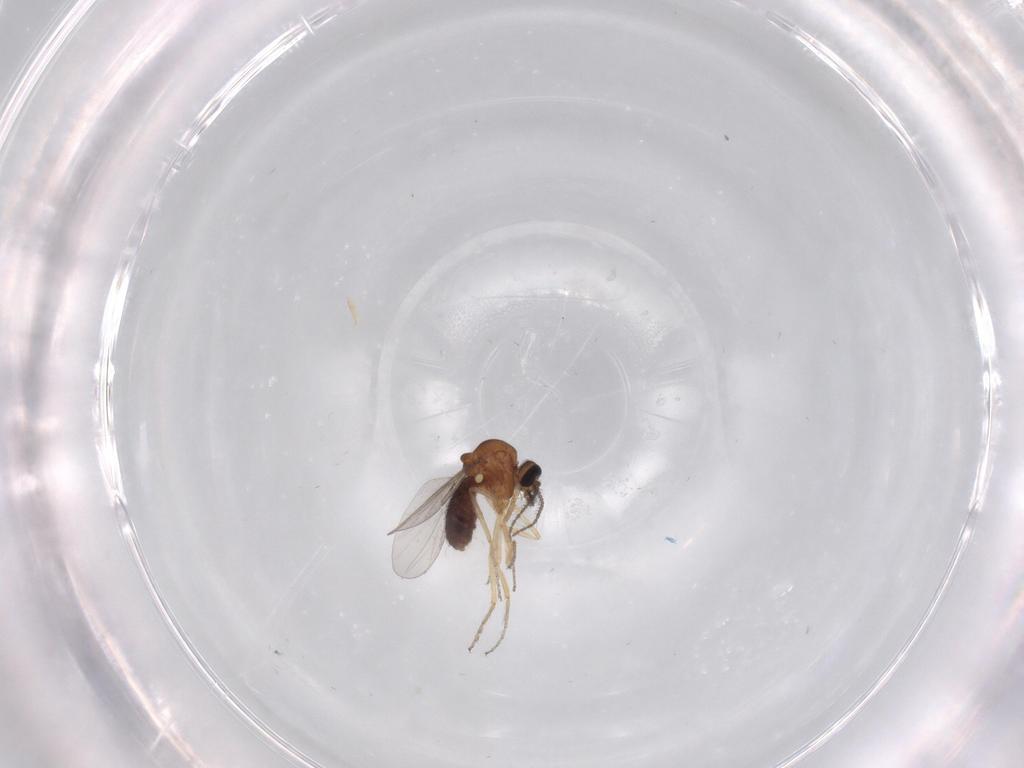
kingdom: Animalia
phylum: Arthropoda
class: Insecta
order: Diptera
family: Ceratopogonidae
